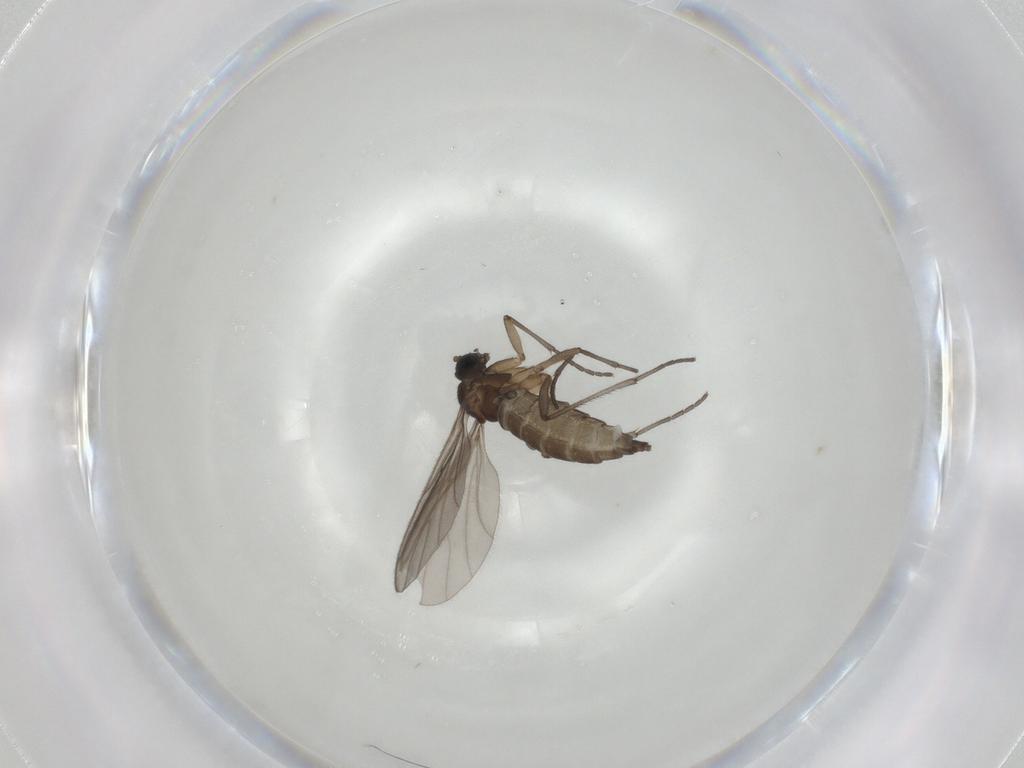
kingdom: Animalia
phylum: Arthropoda
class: Insecta
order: Diptera
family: Sciaridae
